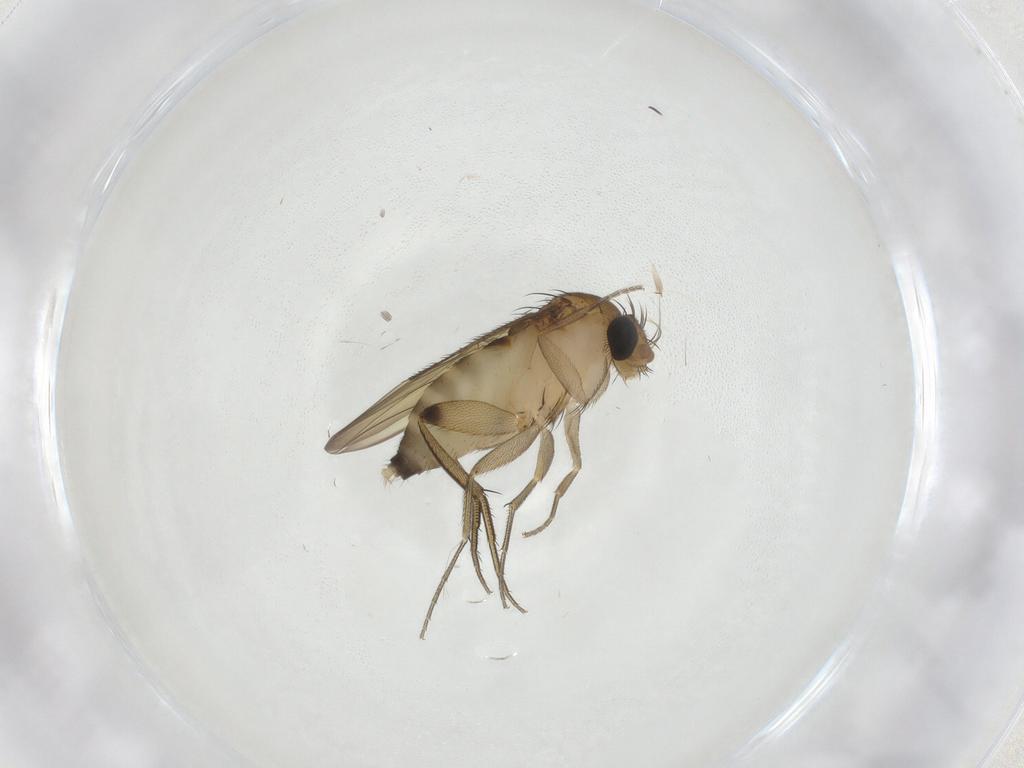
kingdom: Animalia
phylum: Arthropoda
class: Insecta
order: Diptera
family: Phoridae
